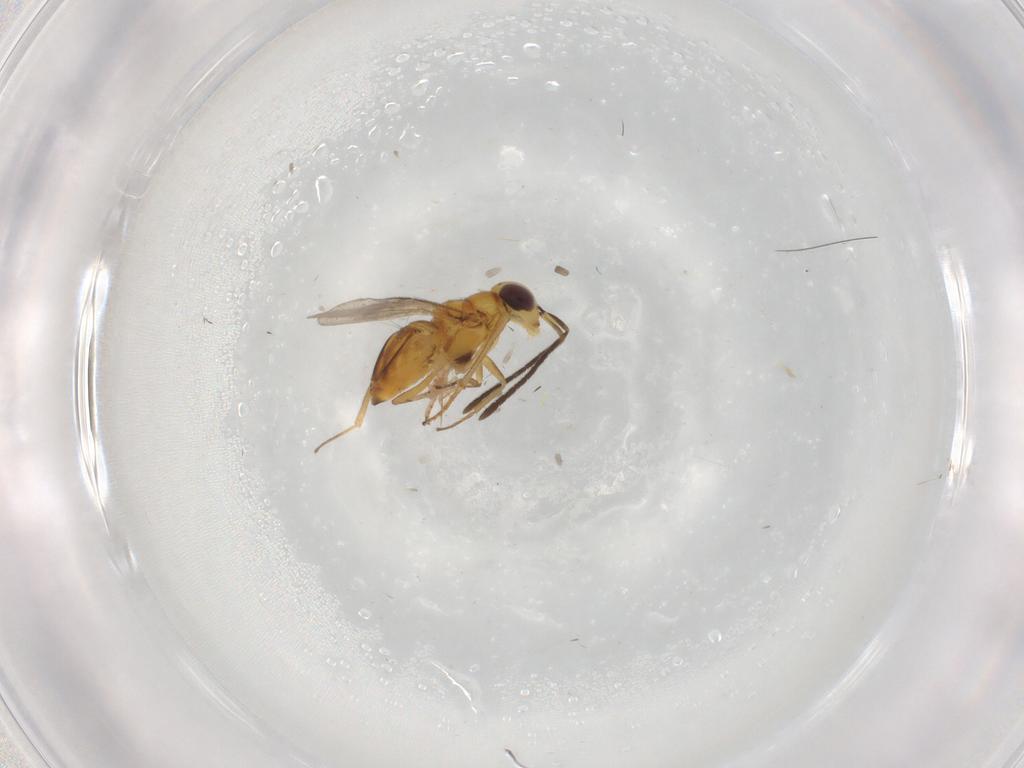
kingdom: Animalia
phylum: Arthropoda
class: Insecta
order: Hymenoptera
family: Encyrtidae
